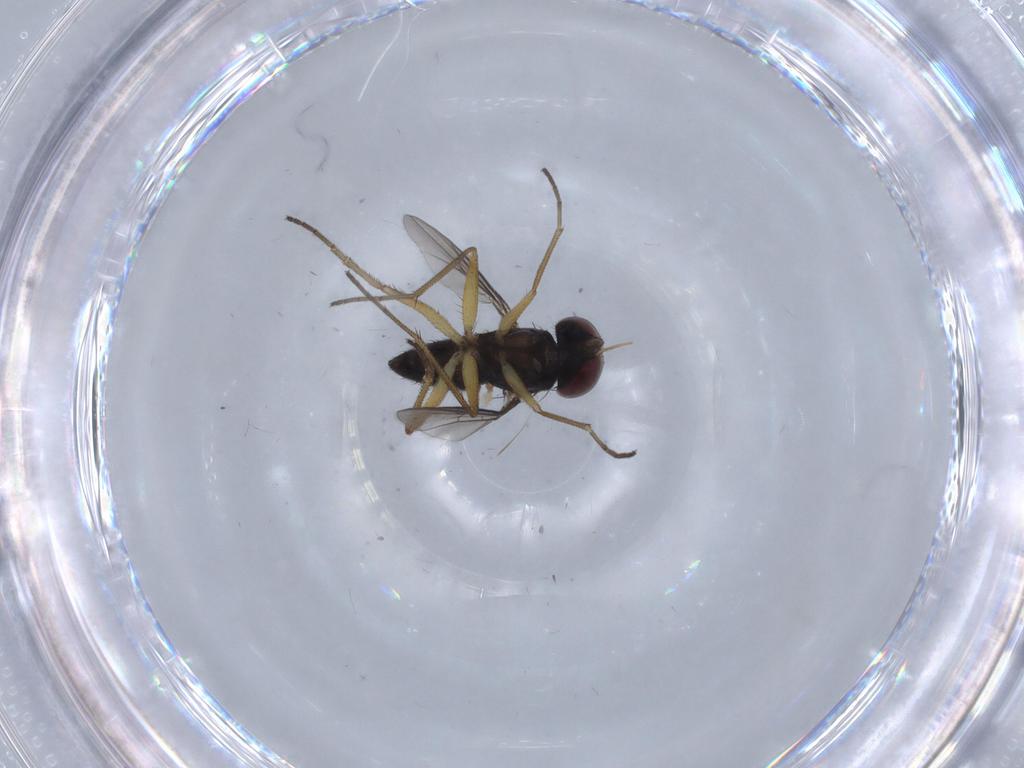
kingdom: Animalia
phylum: Arthropoda
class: Insecta
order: Diptera
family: Dolichopodidae
